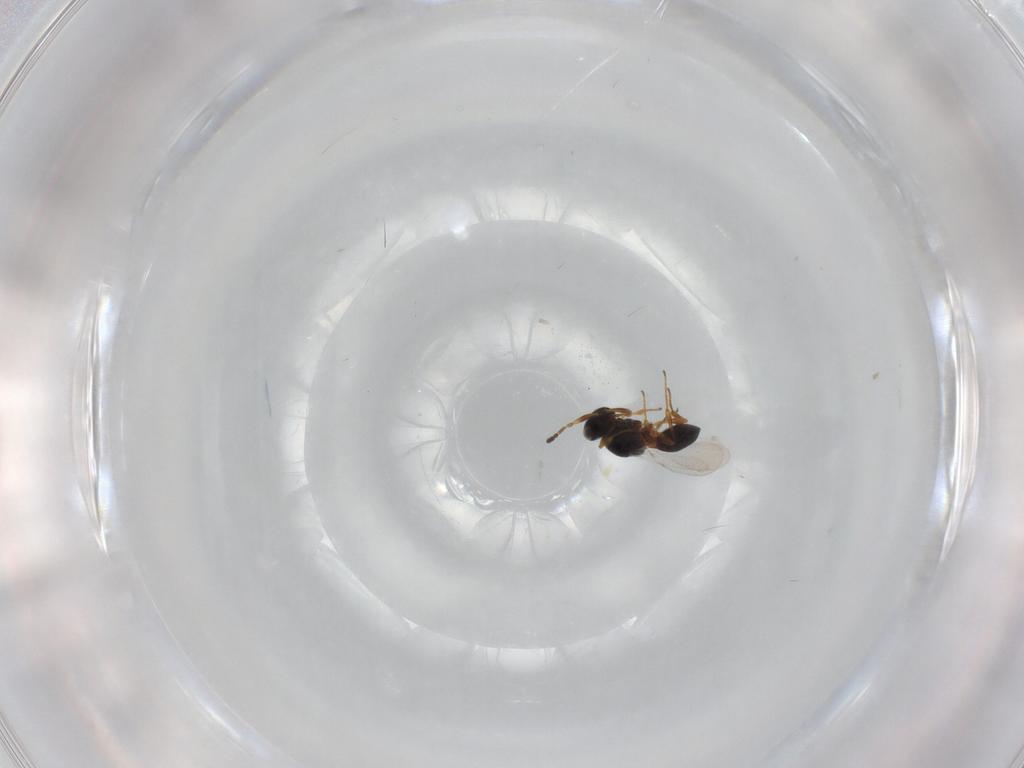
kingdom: Animalia
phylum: Arthropoda
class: Insecta
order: Hymenoptera
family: Platygastridae
